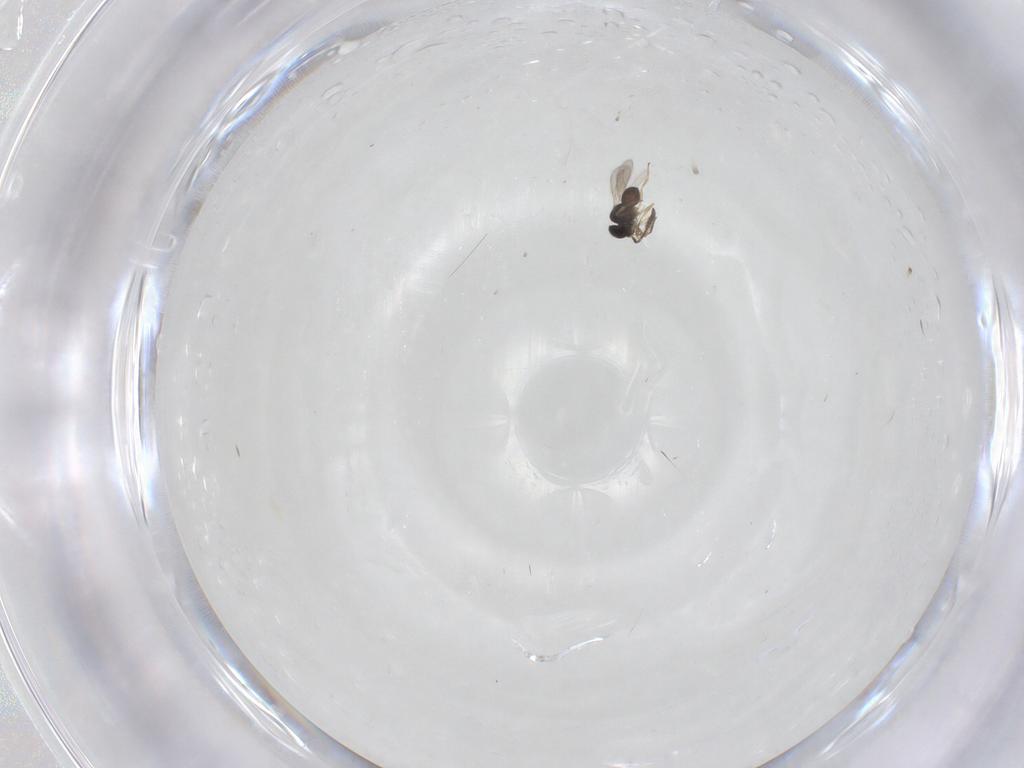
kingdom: Animalia
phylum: Arthropoda
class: Insecta
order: Hymenoptera
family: Scelionidae
